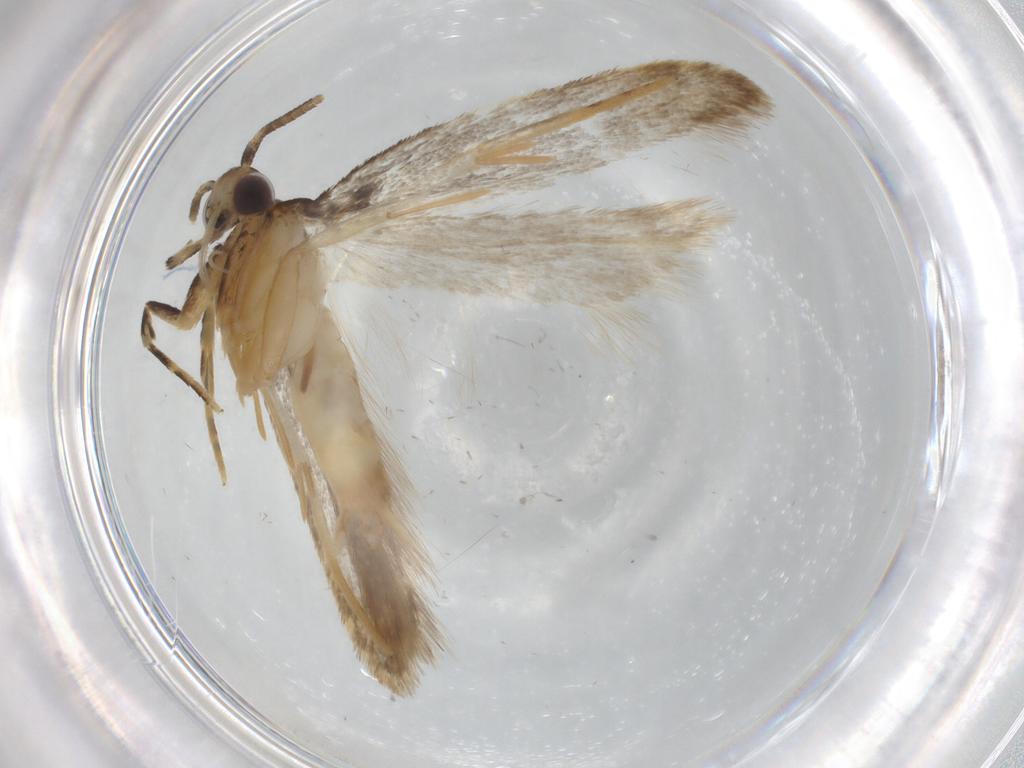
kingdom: Animalia
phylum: Arthropoda
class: Insecta
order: Lepidoptera
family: Autostichidae
